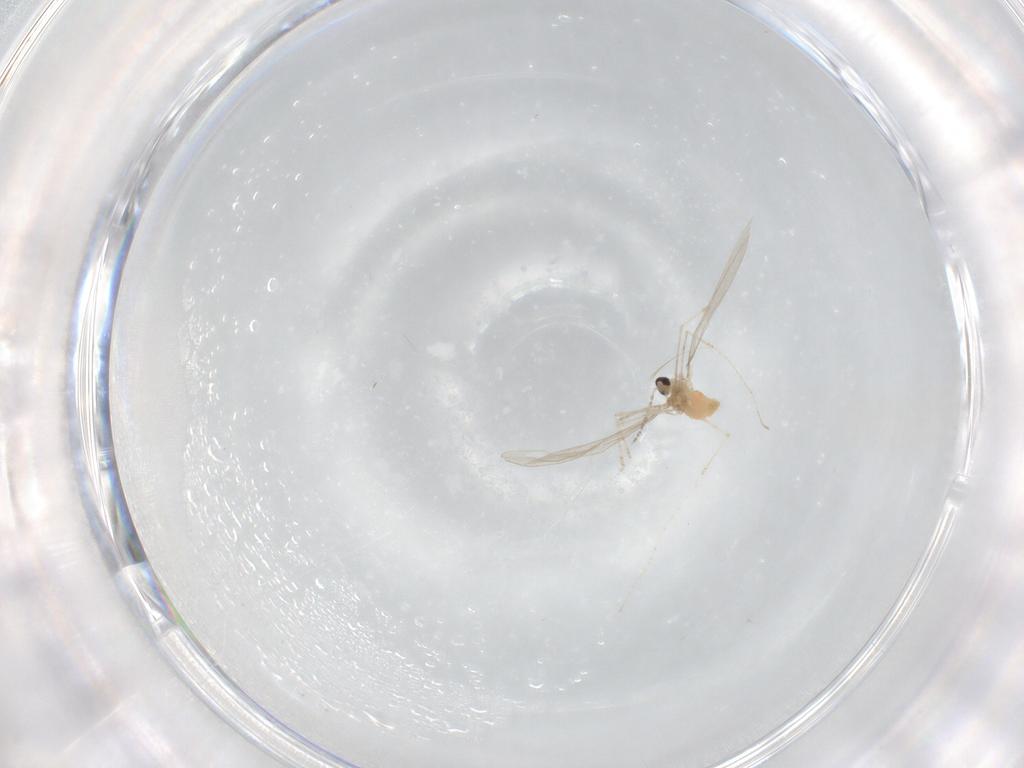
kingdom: Animalia
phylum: Arthropoda
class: Insecta
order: Diptera
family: Cecidomyiidae
